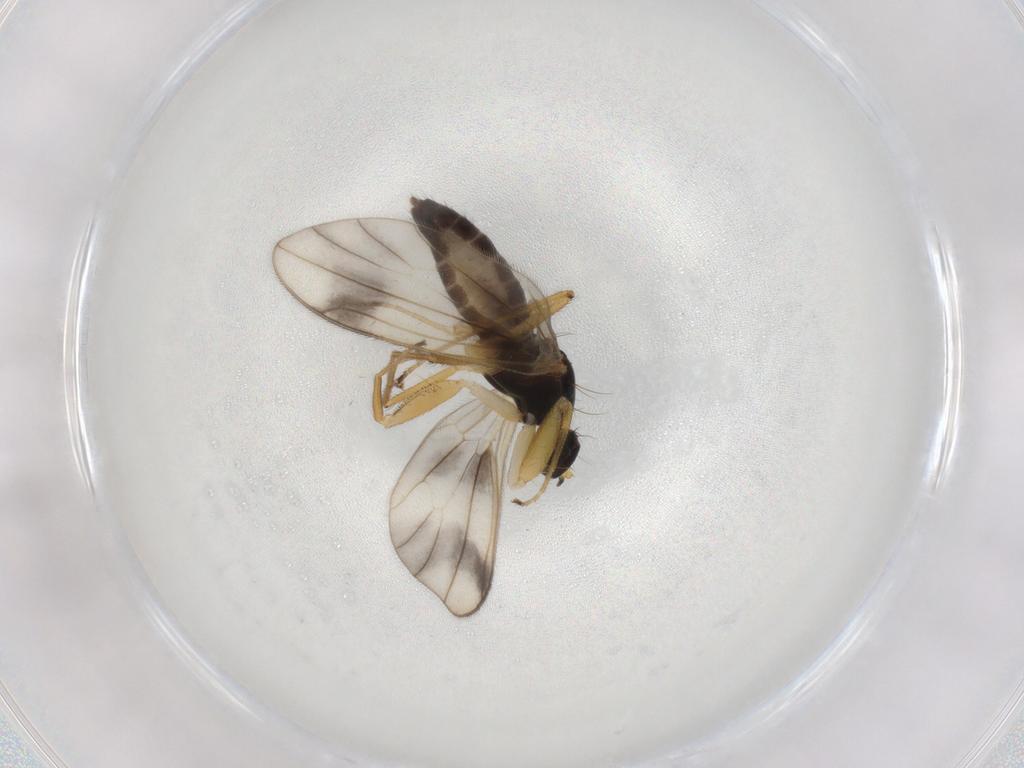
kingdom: Animalia
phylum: Arthropoda
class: Insecta
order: Diptera
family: Empididae
